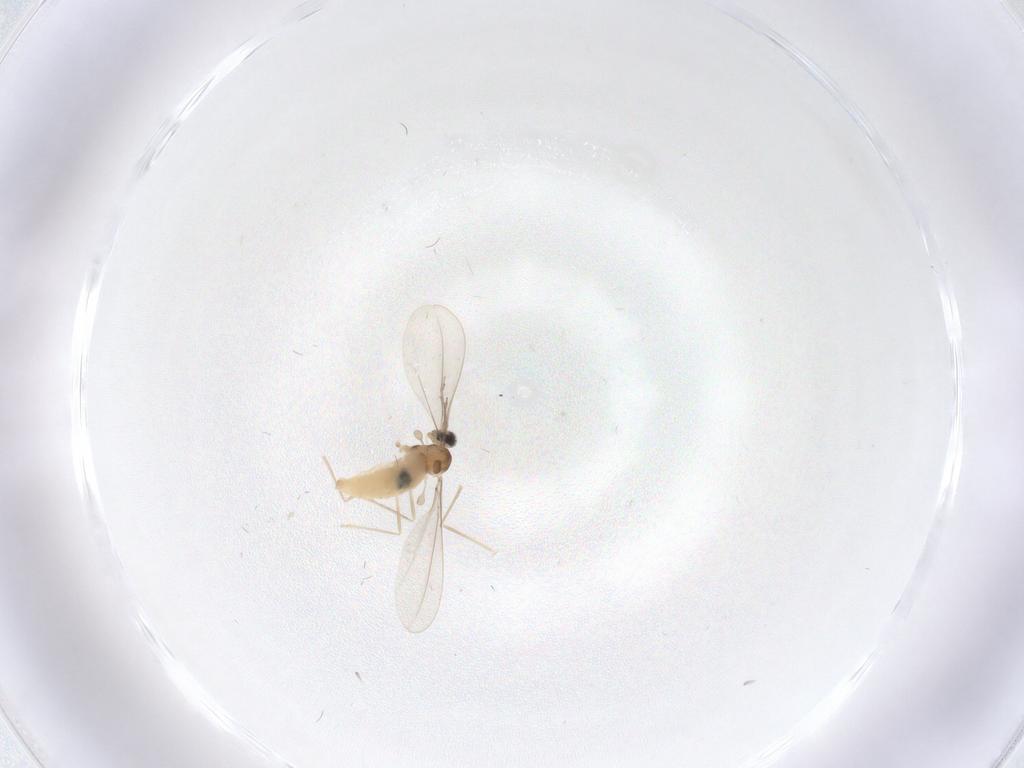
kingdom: Animalia
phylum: Arthropoda
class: Insecta
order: Diptera
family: Cecidomyiidae
